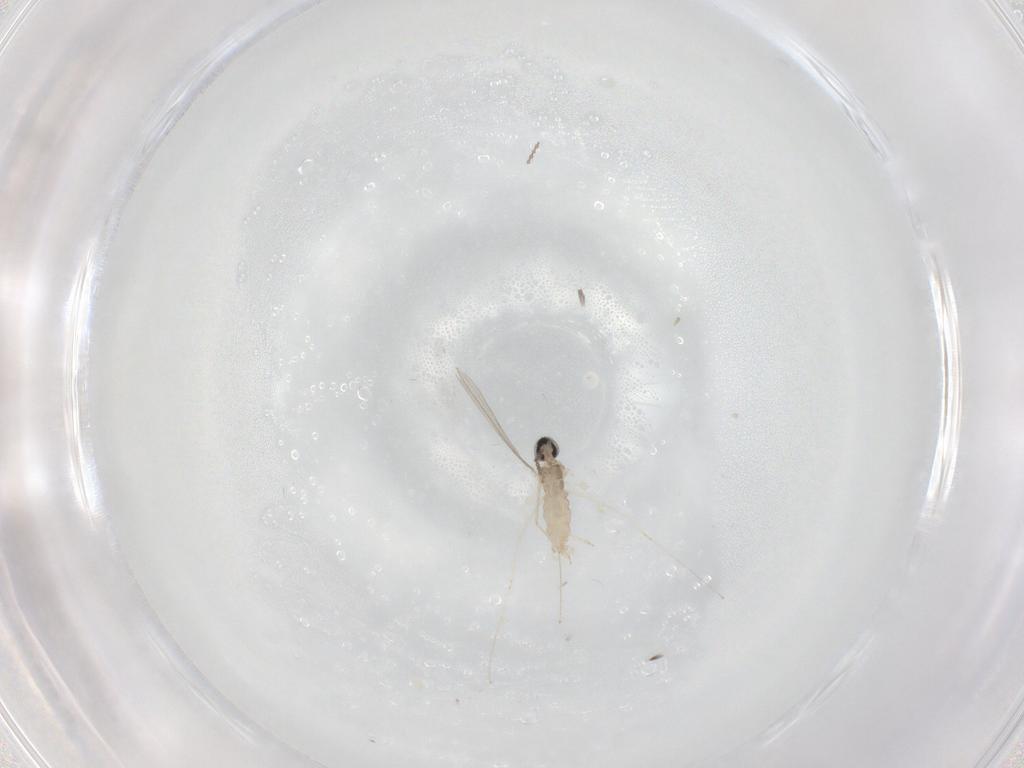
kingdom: Animalia
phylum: Arthropoda
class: Insecta
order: Diptera
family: Cecidomyiidae
